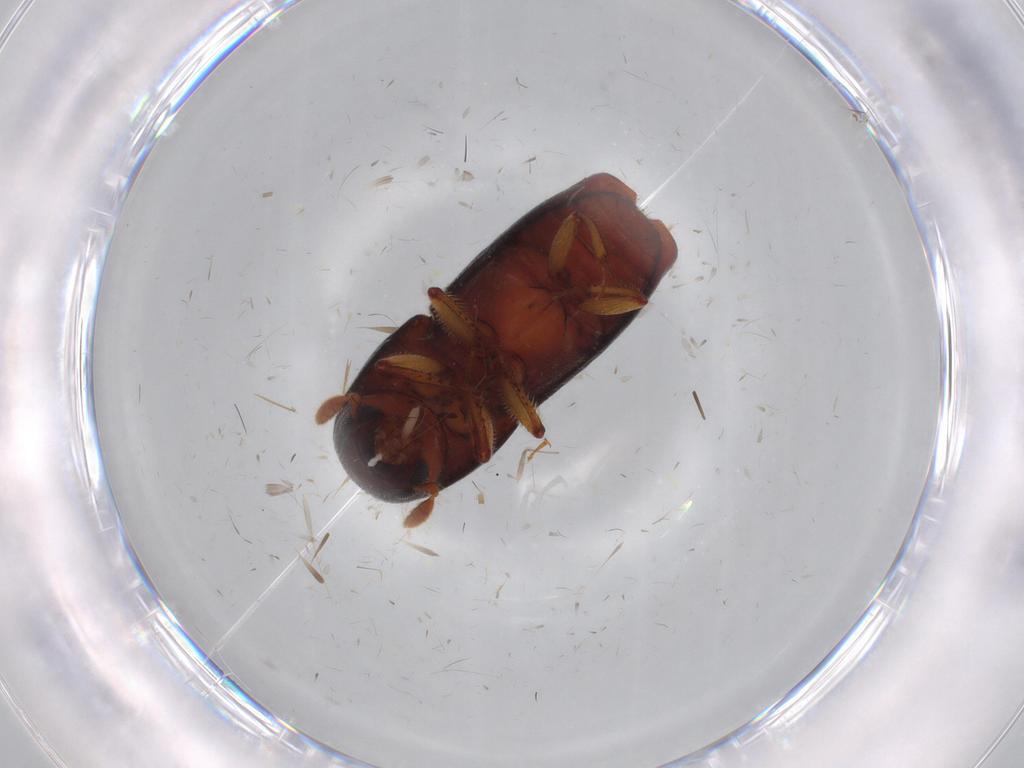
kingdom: Animalia
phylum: Arthropoda
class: Insecta
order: Coleoptera
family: Curculionidae
